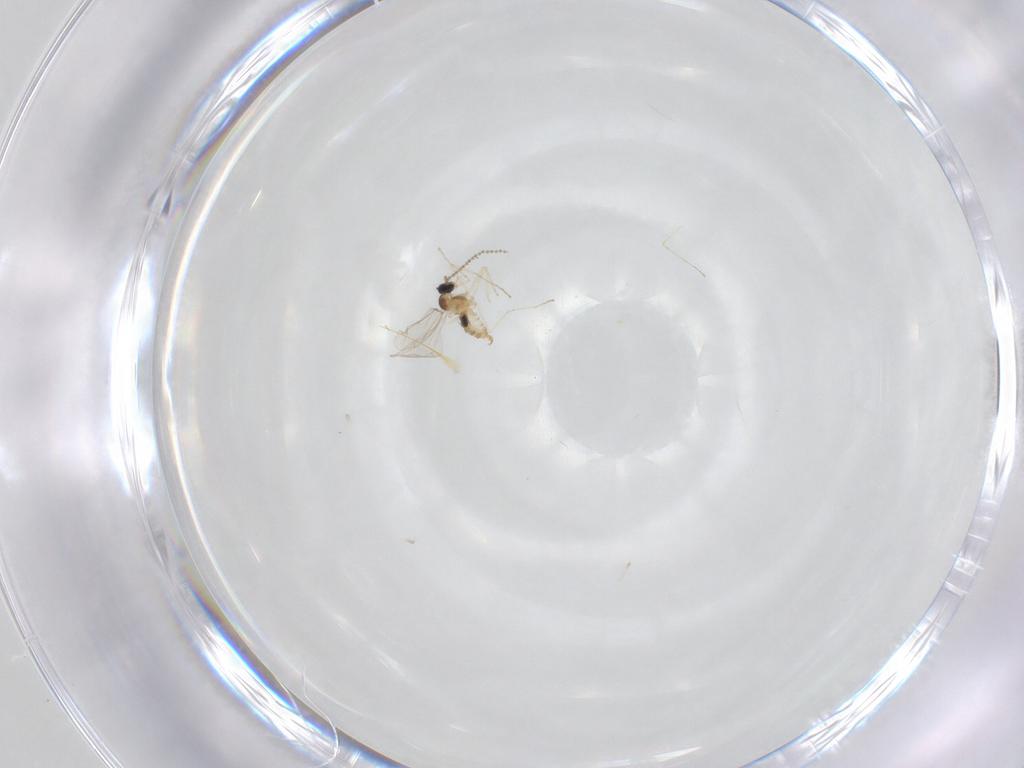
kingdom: Animalia
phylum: Arthropoda
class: Insecta
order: Diptera
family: Cecidomyiidae
